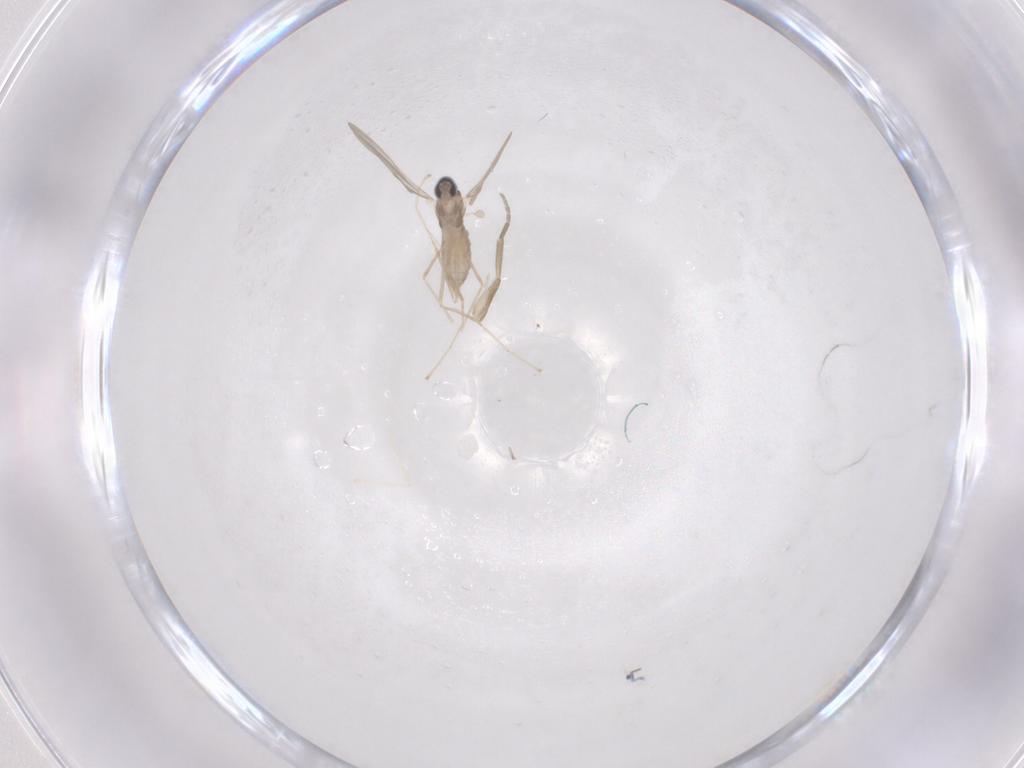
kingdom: Animalia
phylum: Arthropoda
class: Insecta
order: Diptera
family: Cecidomyiidae
